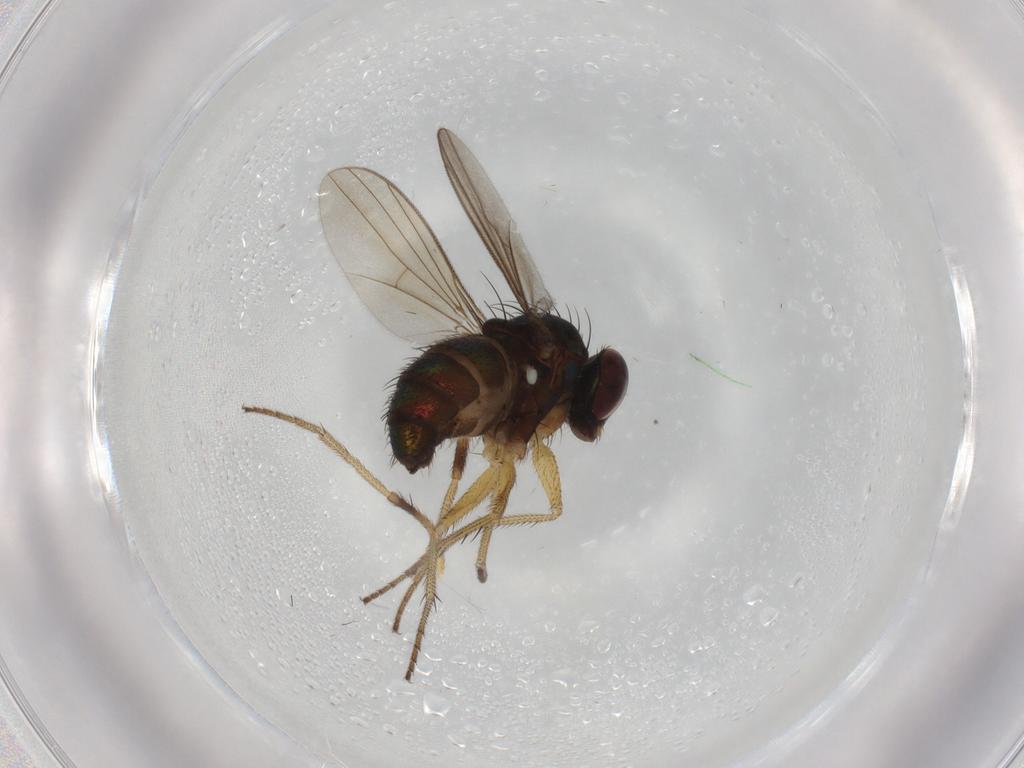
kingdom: Animalia
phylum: Arthropoda
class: Insecta
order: Diptera
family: Dolichopodidae
